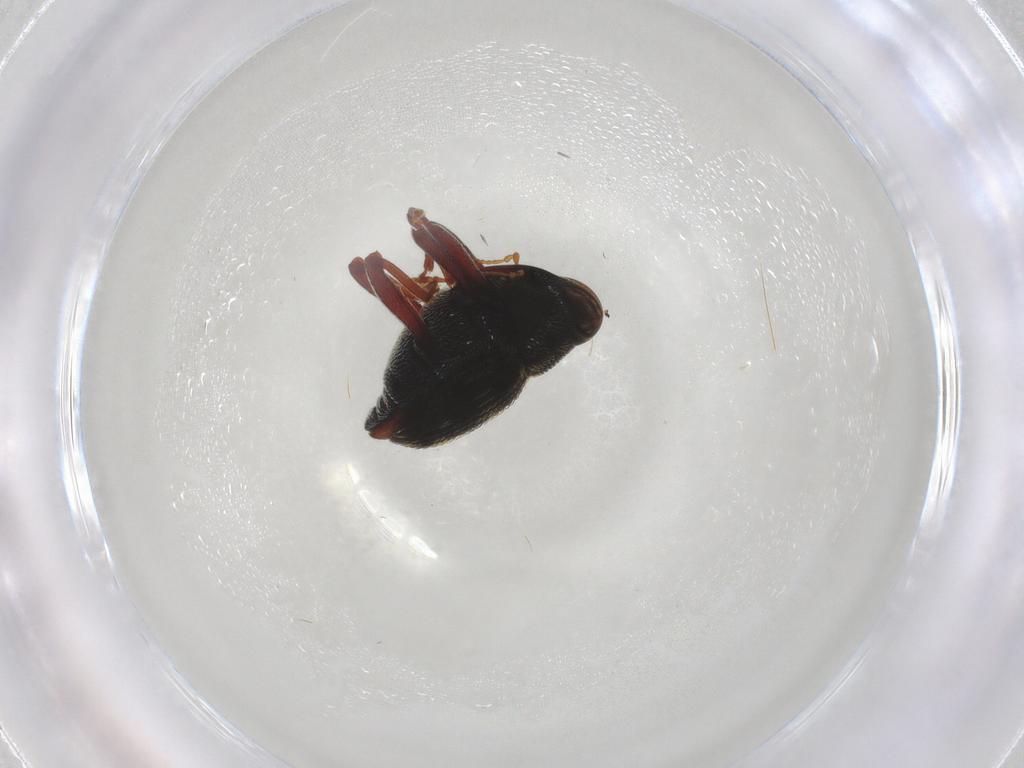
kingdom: Animalia
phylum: Arthropoda
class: Insecta
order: Coleoptera
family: Curculionidae
